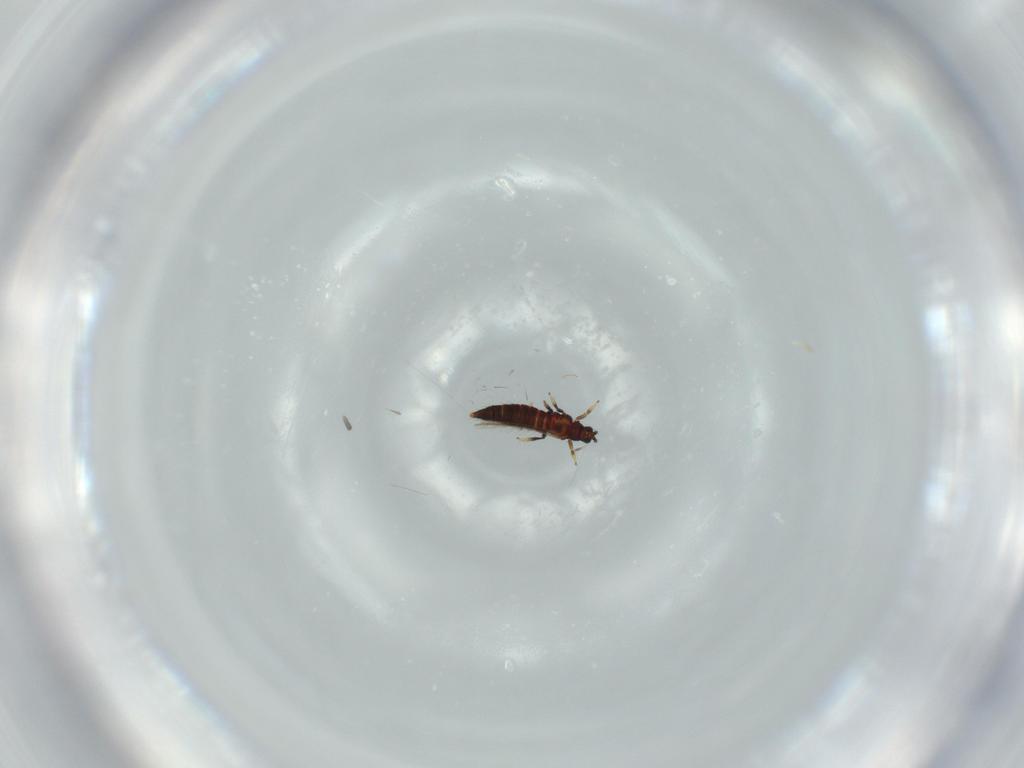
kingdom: Animalia
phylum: Arthropoda
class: Insecta
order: Thysanoptera
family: Thripidae
